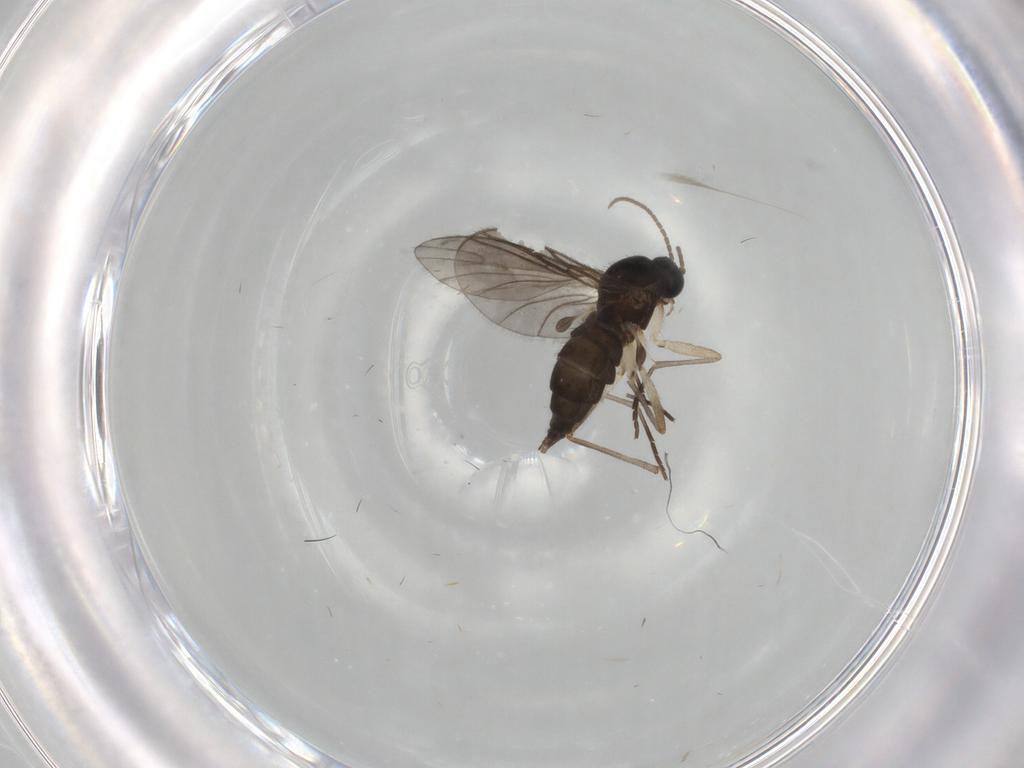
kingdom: Animalia
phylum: Arthropoda
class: Insecta
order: Diptera
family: Sciaridae
